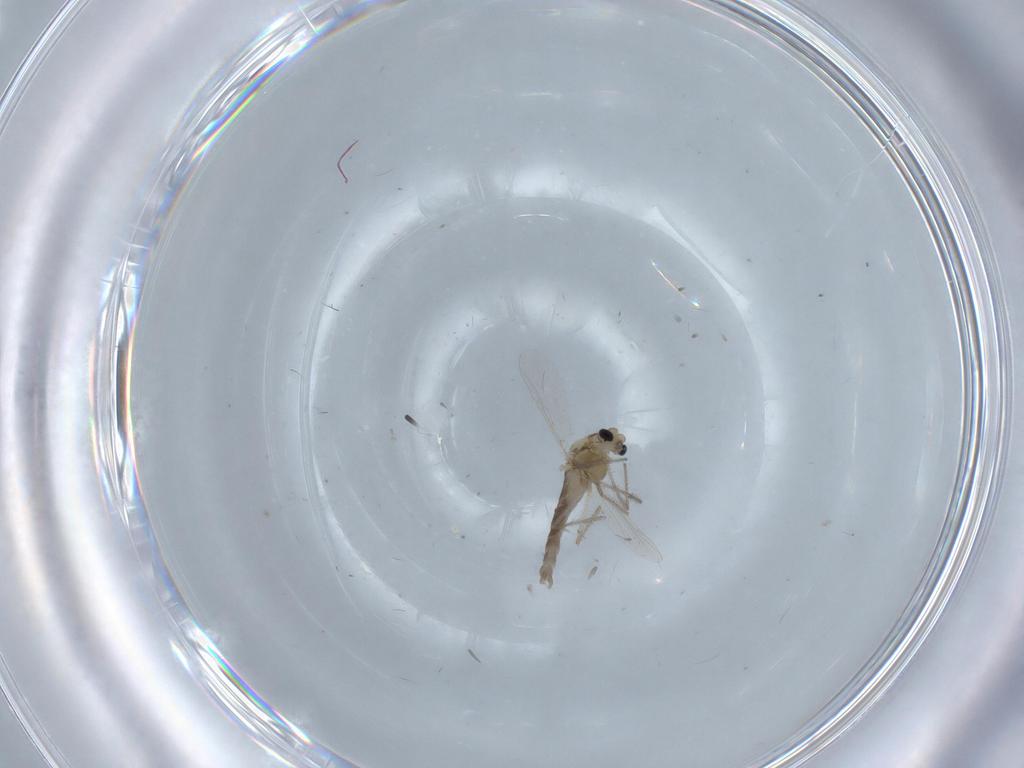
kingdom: Animalia
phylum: Arthropoda
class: Insecta
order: Diptera
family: Chironomidae
